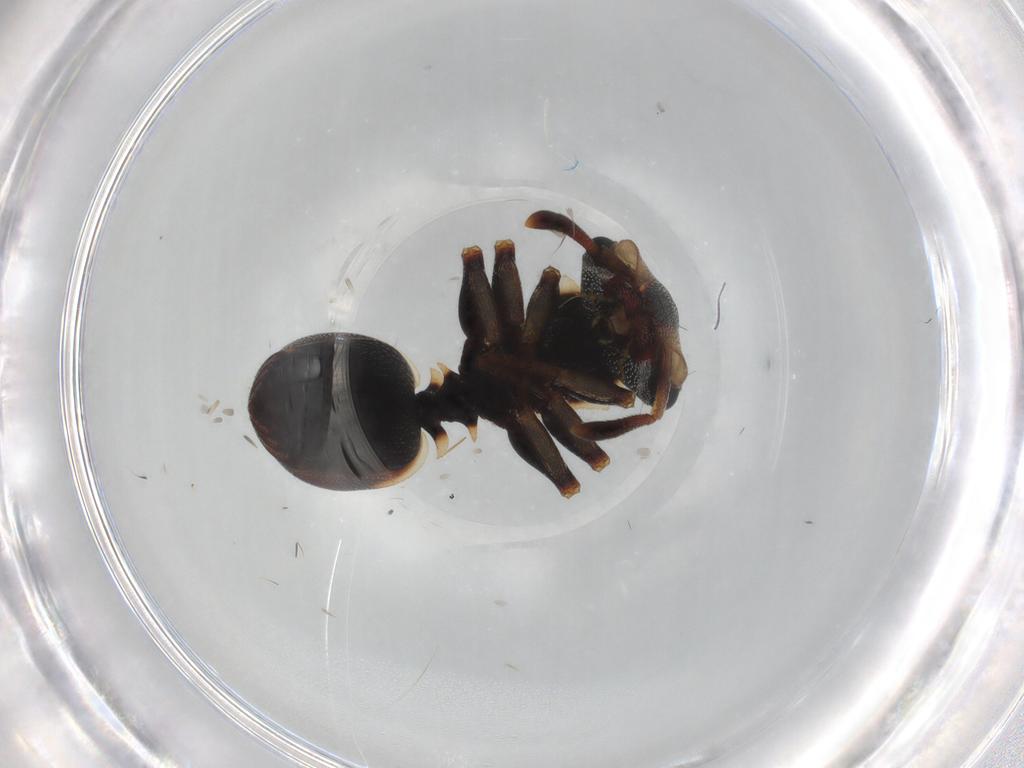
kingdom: Animalia
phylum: Arthropoda
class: Insecta
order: Hymenoptera
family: Formicidae
